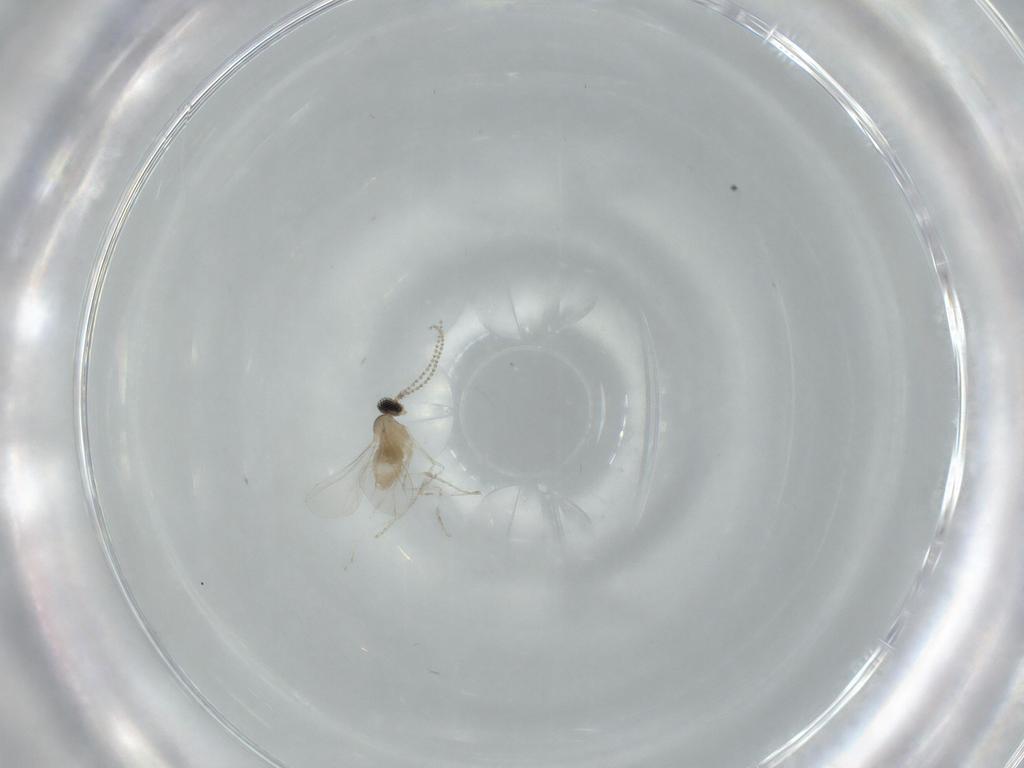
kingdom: Animalia
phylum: Arthropoda
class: Insecta
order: Diptera
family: Cecidomyiidae
